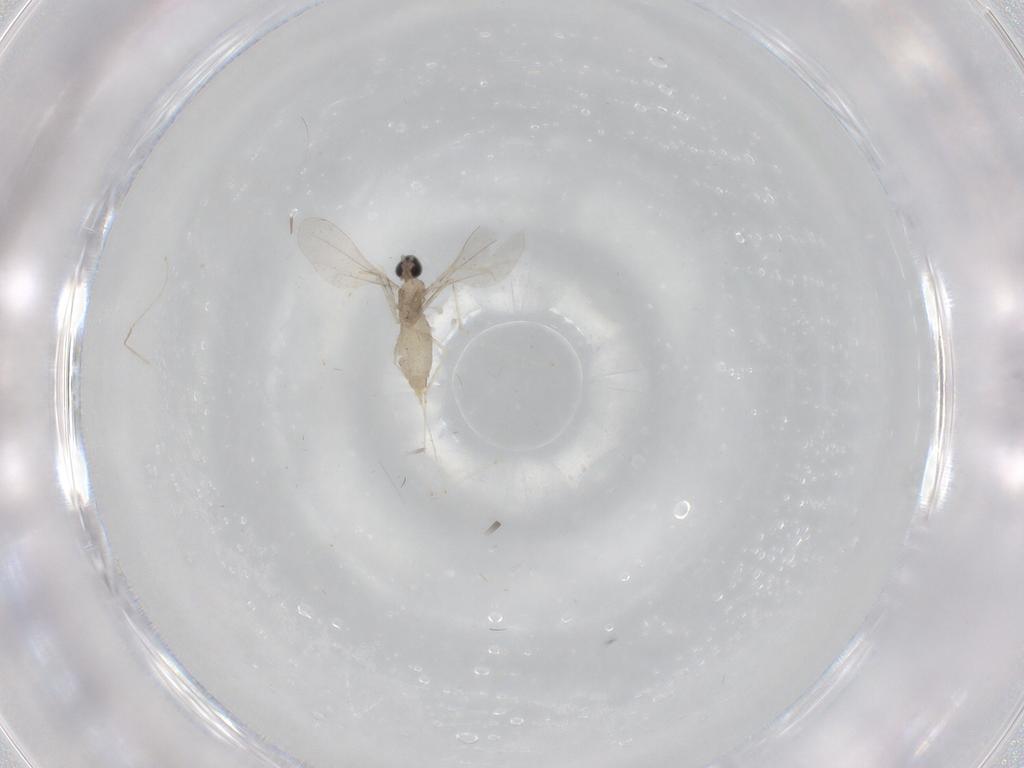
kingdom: Animalia
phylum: Arthropoda
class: Insecta
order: Diptera
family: Cecidomyiidae
